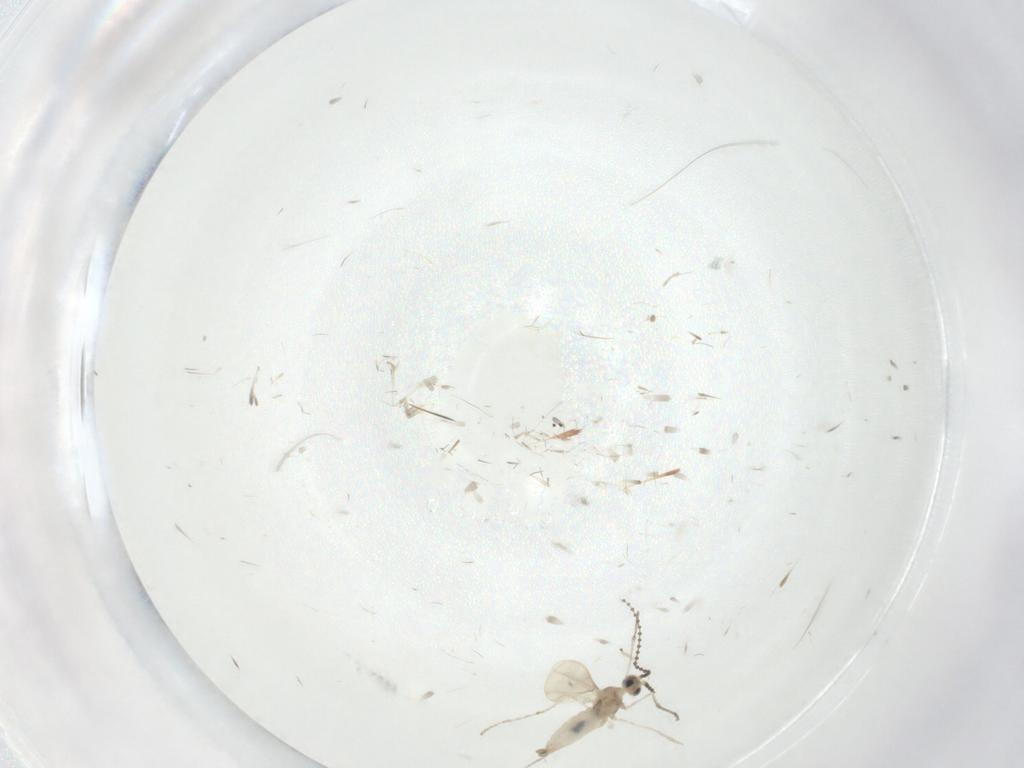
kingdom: Animalia
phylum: Arthropoda
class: Insecta
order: Diptera
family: Cecidomyiidae
